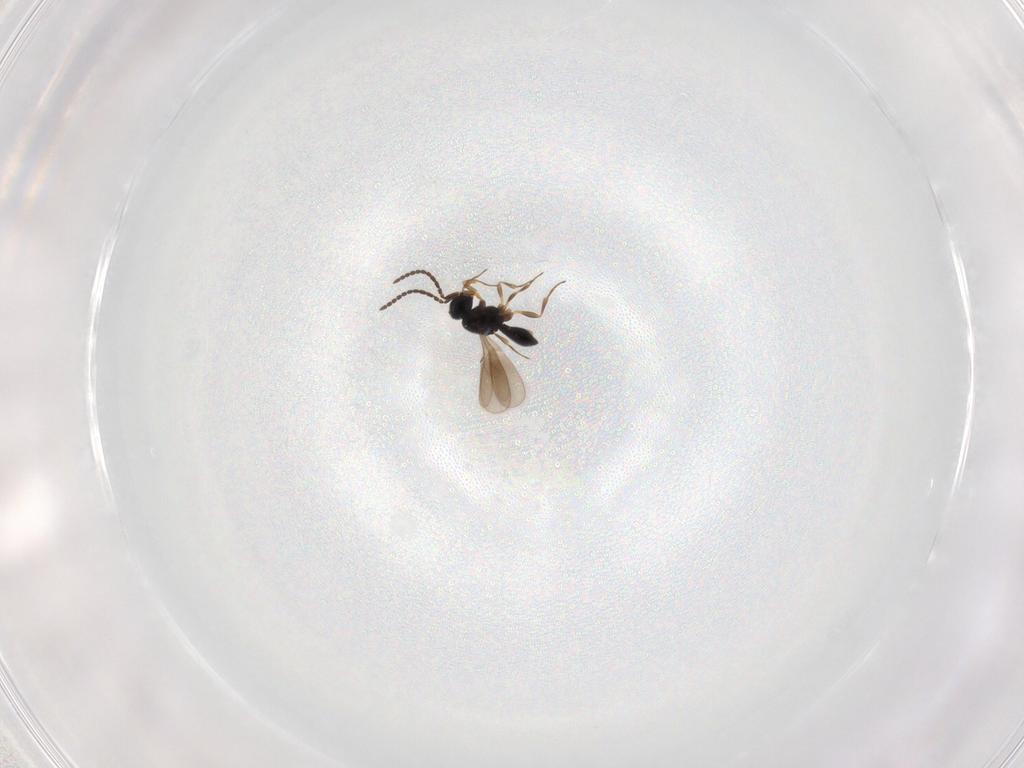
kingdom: Animalia
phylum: Arthropoda
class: Insecta
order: Hymenoptera
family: Scelionidae
